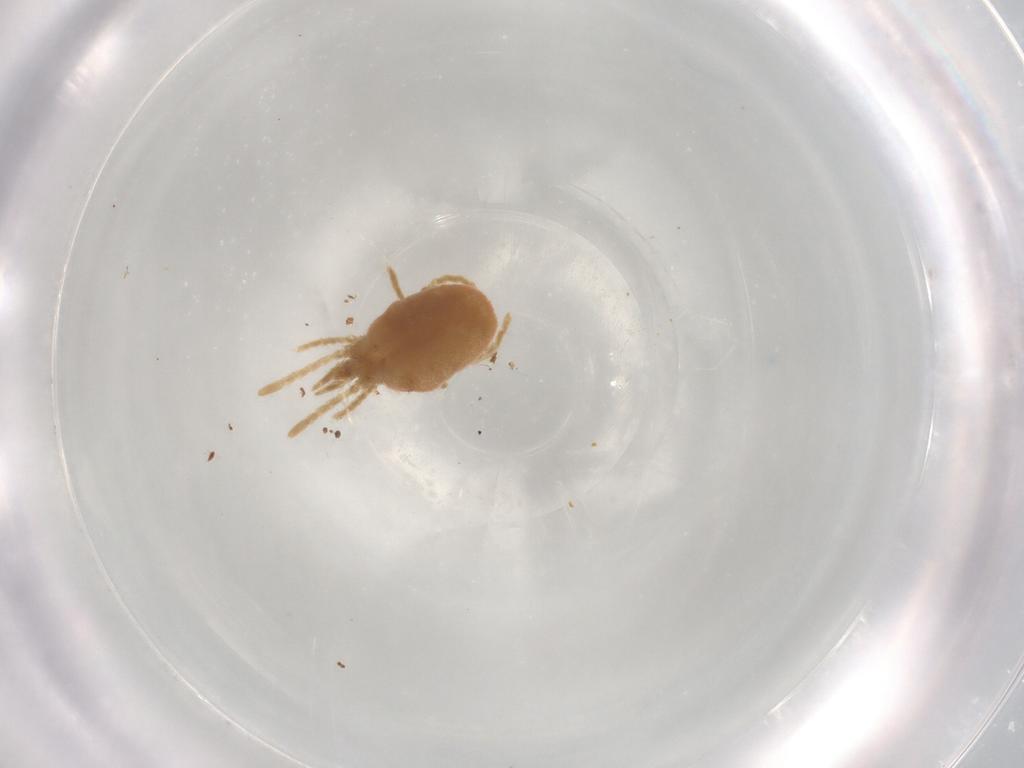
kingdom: Animalia
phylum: Arthropoda
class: Arachnida
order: Trombidiformes
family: Microtrombidiidae
